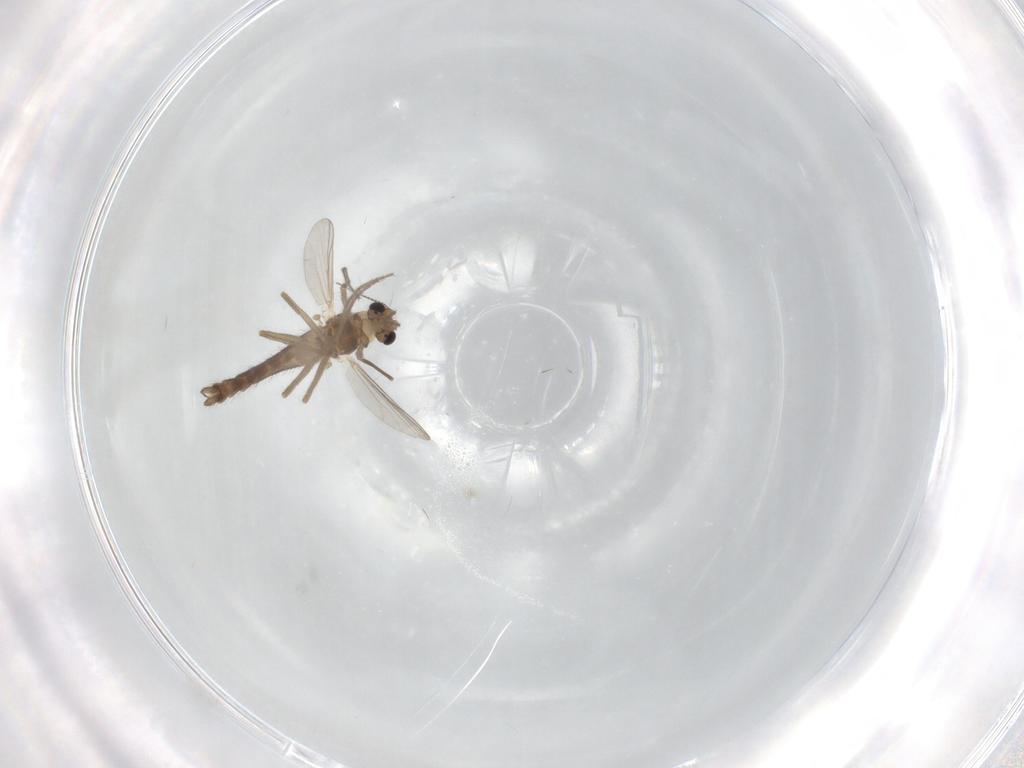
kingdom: Animalia
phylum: Arthropoda
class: Insecta
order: Diptera
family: Chironomidae
